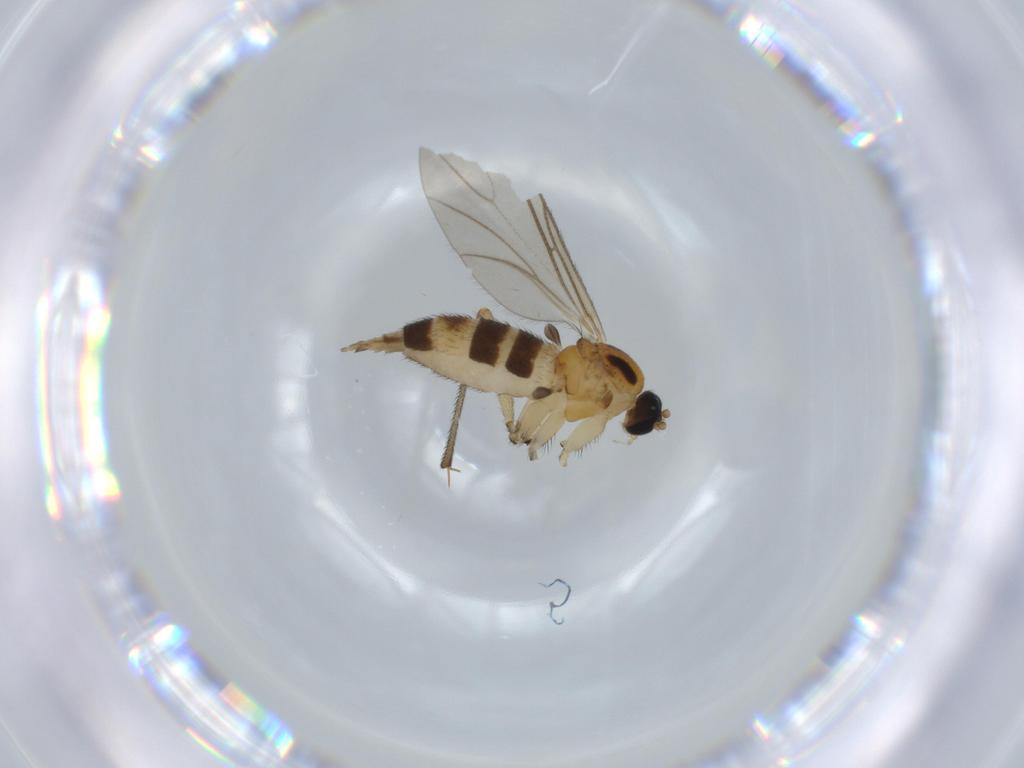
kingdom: Animalia
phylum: Arthropoda
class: Insecta
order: Diptera
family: Sciaridae
